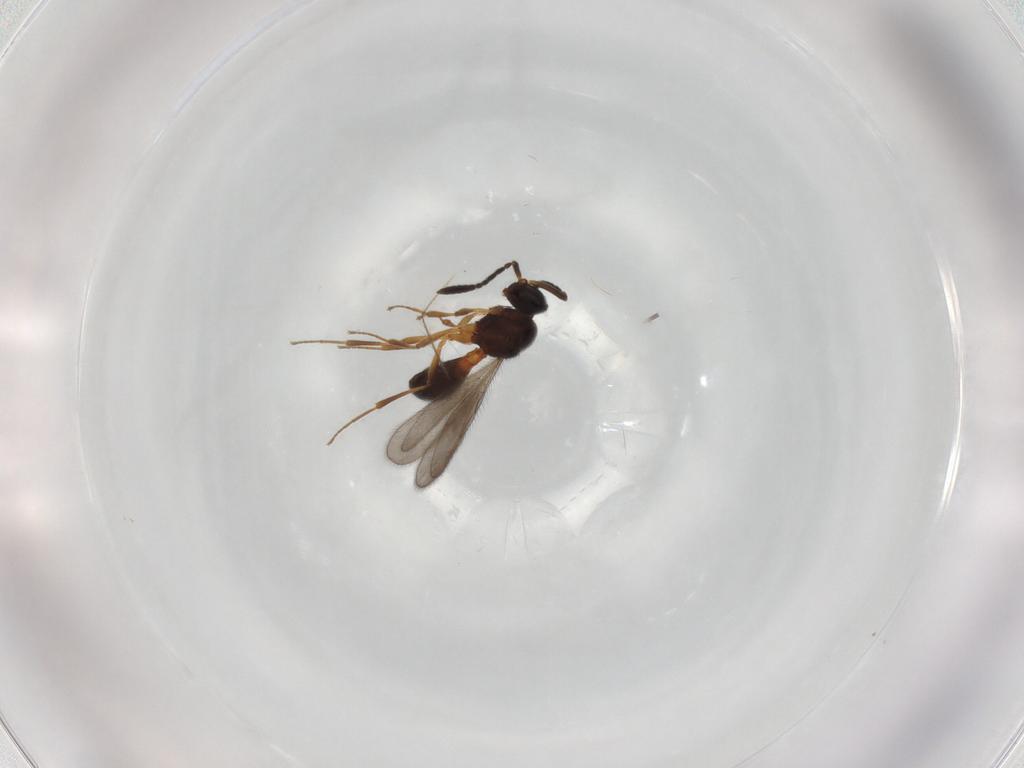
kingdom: Animalia
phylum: Arthropoda
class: Insecta
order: Hymenoptera
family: Scelionidae
